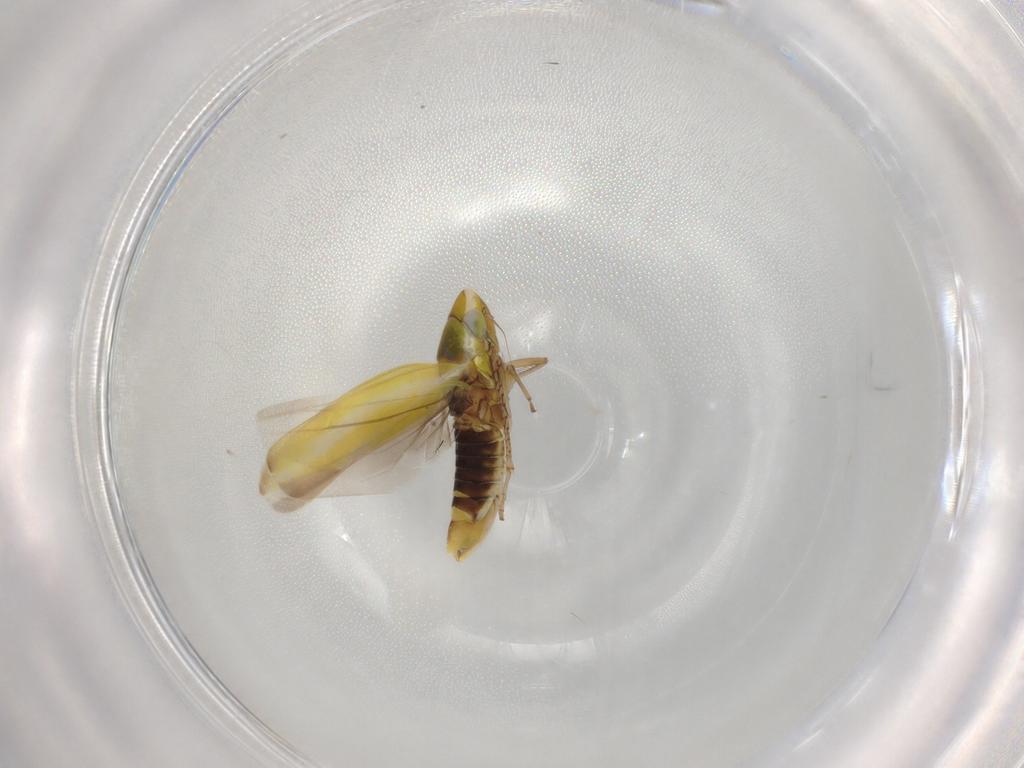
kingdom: Animalia
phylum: Arthropoda
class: Insecta
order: Hemiptera
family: Cicadellidae
